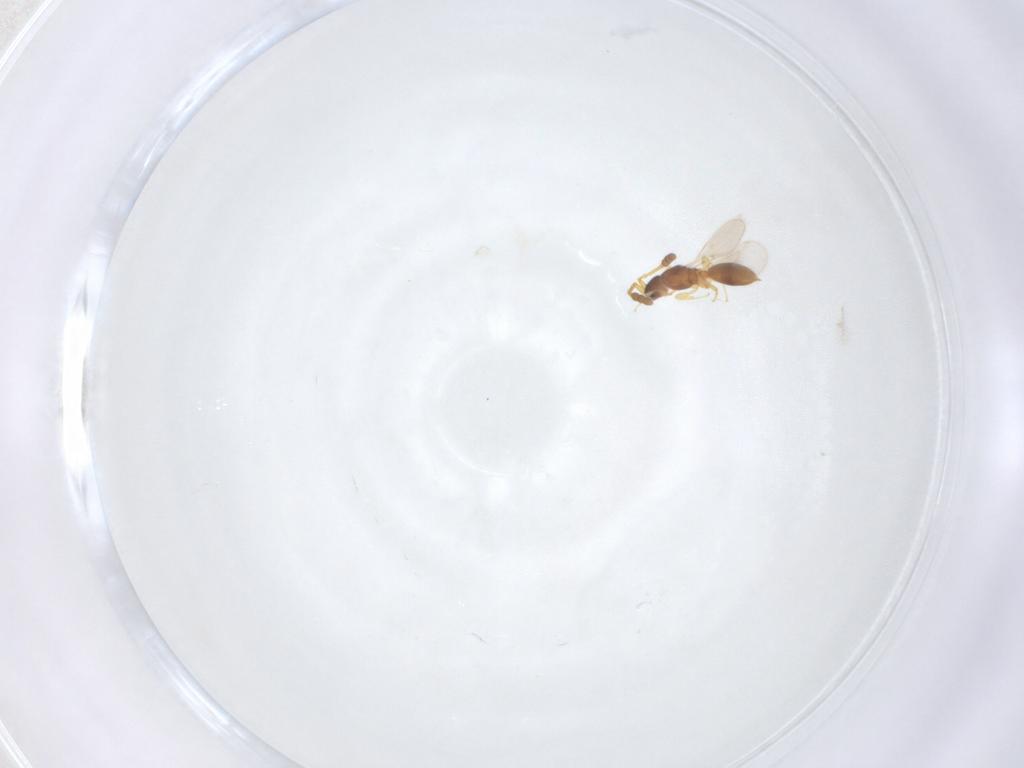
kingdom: Animalia
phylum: Arthropoda
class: Insecta
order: Hymenoptera
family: Diapriidae
